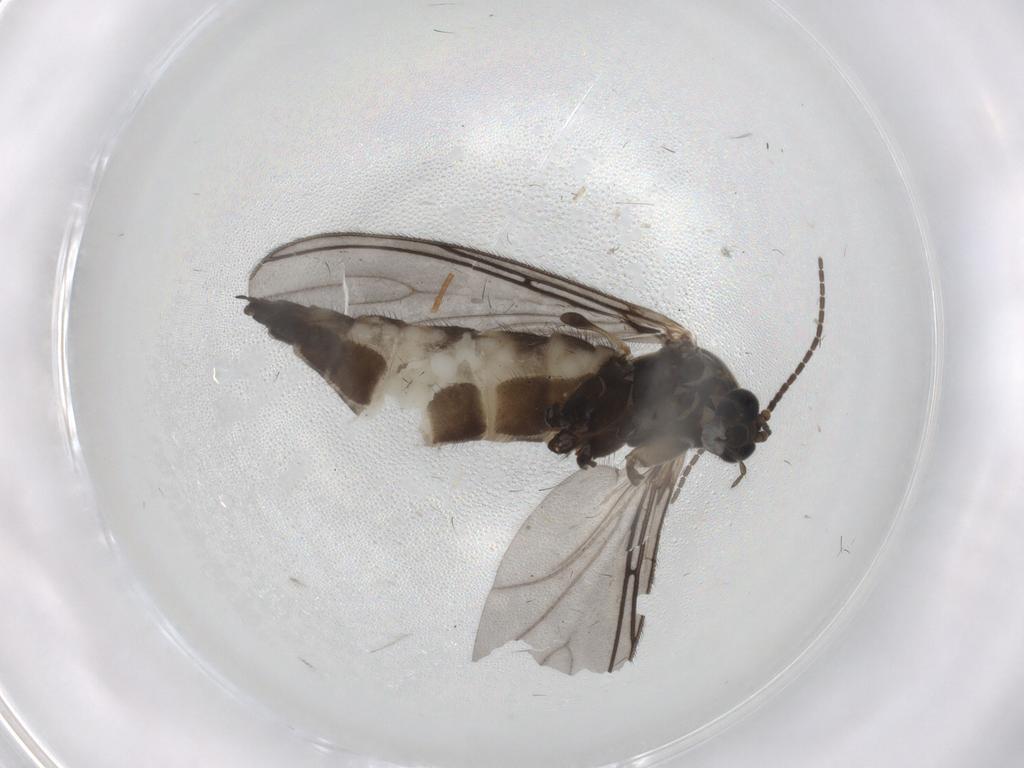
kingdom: Animalia
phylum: Arthropoda
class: Insecta
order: Diptera
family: Sciaridae
